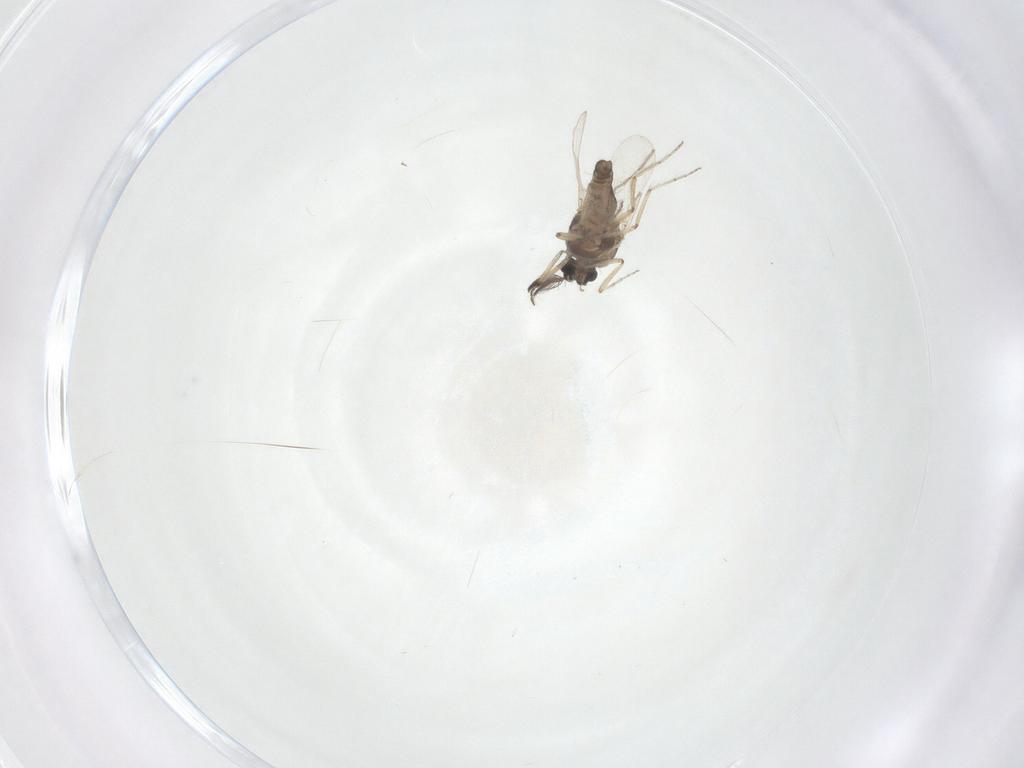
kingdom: Animalia
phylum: Arthropoda
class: Insecta
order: Diptera
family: Ceratopogonidae
